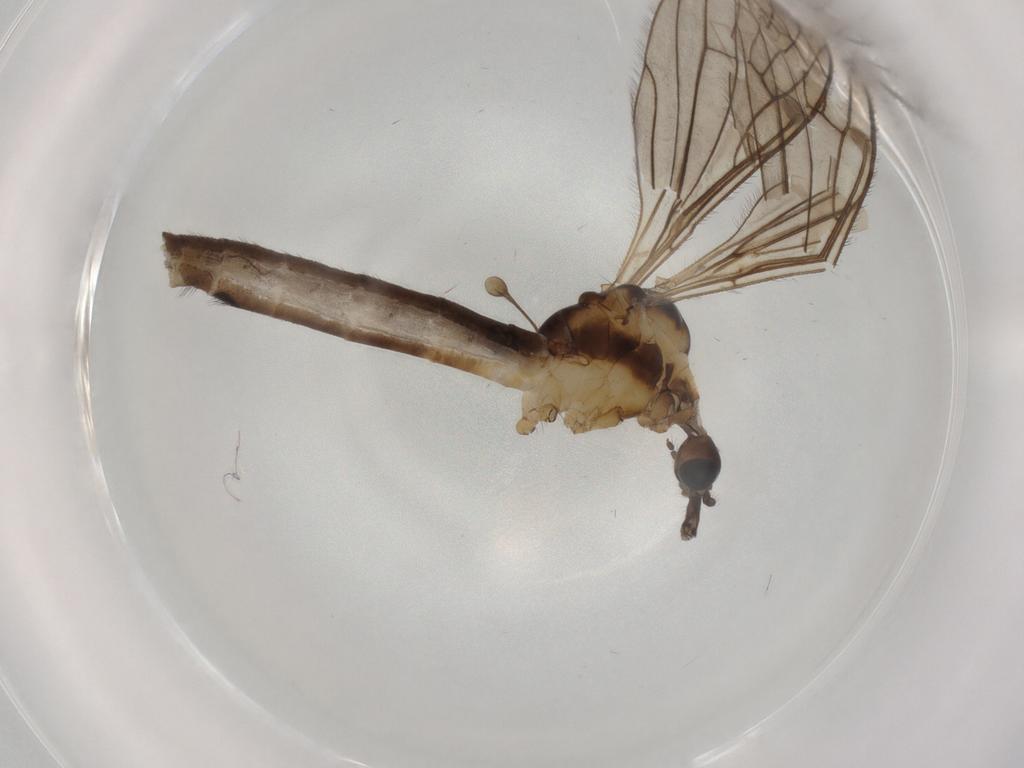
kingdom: Animalia
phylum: Arthropoda
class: Insecta
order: Diptera
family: Limoniidae
